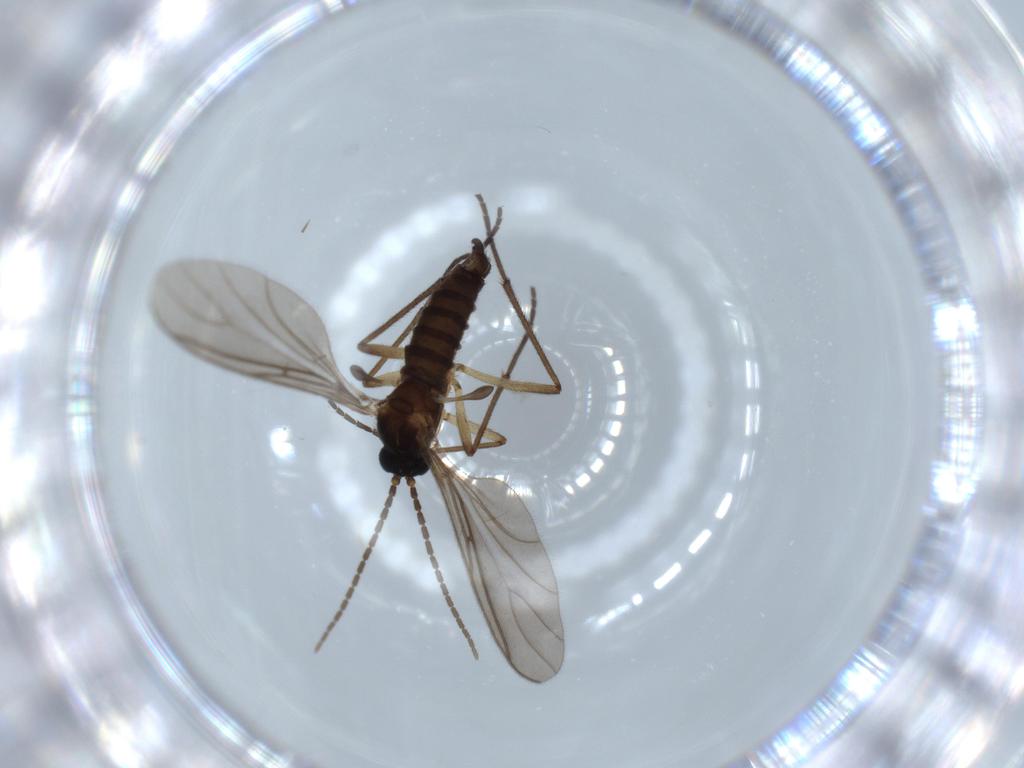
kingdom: Animalia
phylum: Arthropoda
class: Insecta
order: Diptera
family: Sciaridae
